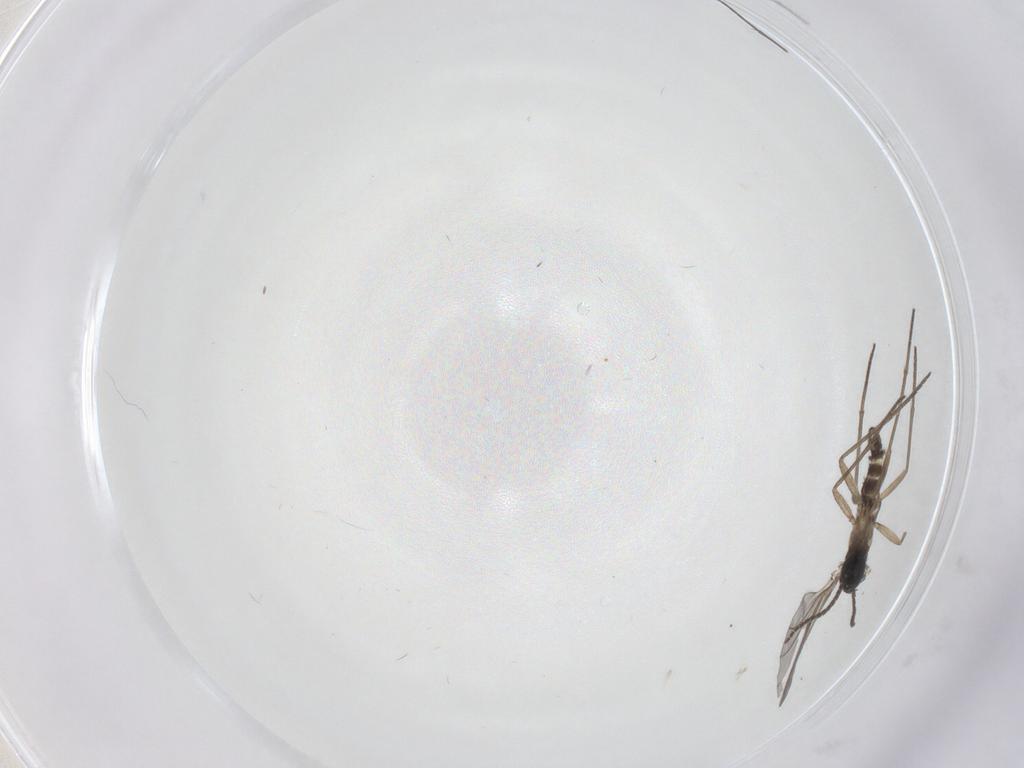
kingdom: Animalia
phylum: Arthropoda
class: Insecta
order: Diptera
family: Sciaridae
